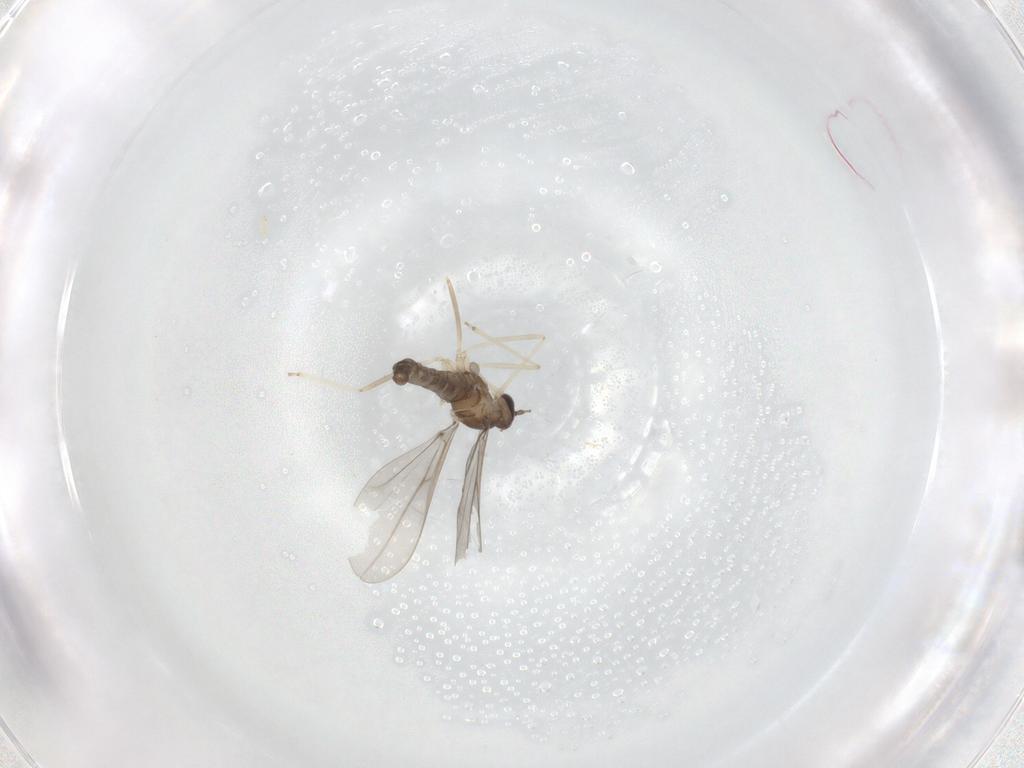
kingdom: Animalia
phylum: Arthropoda
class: Insecta
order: Diptera
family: Cecidomyiidae
